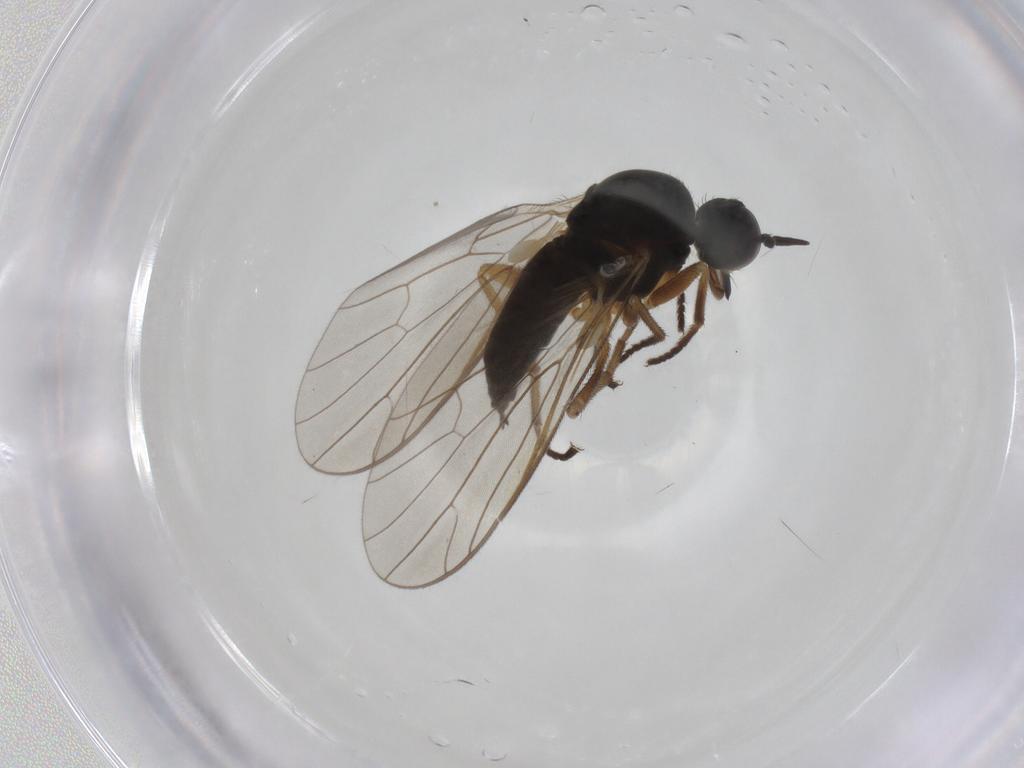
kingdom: Animalia
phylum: Arthropoda
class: Insecta
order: Diptera
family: Empididae
